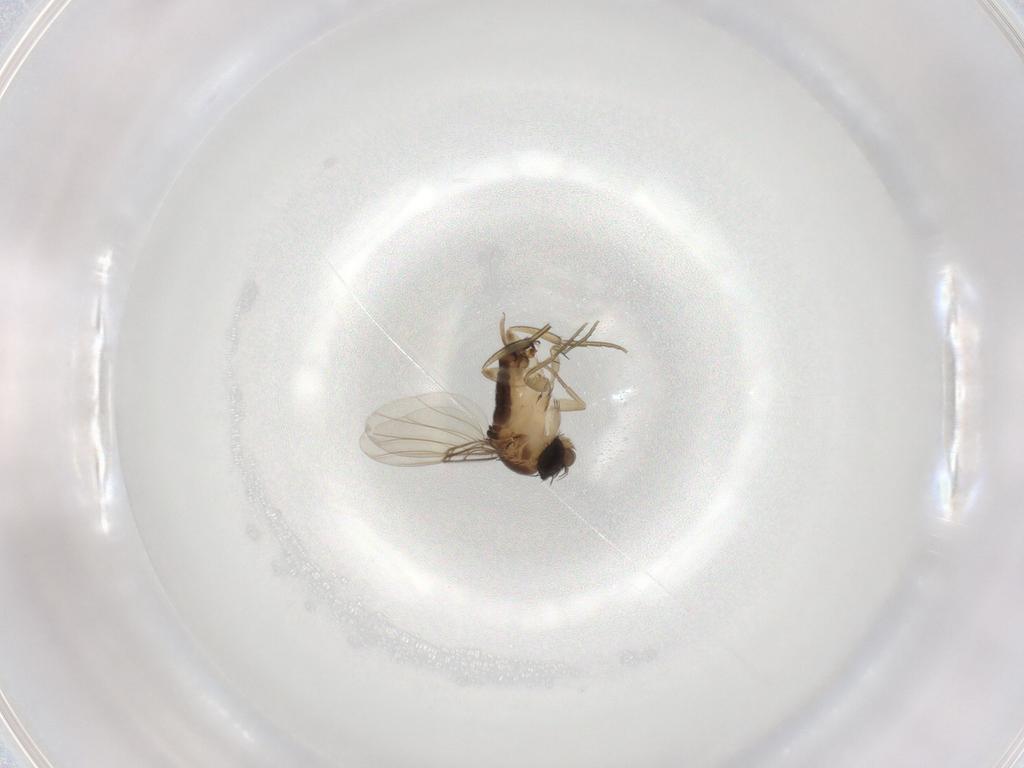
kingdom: Animalia
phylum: Arthropoda
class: Insecta
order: Diptera
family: Phoridae
